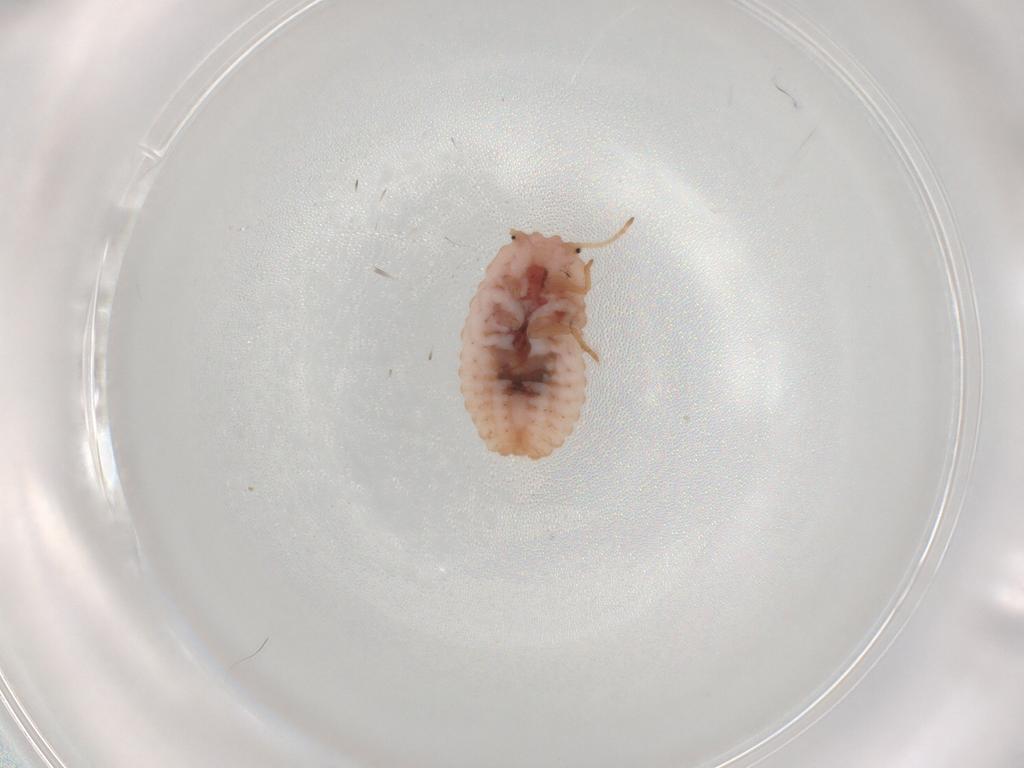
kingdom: Animalia
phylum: Arthropoda
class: Insecta
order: Hemiptera
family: Coccoidea_incertae_sedis
